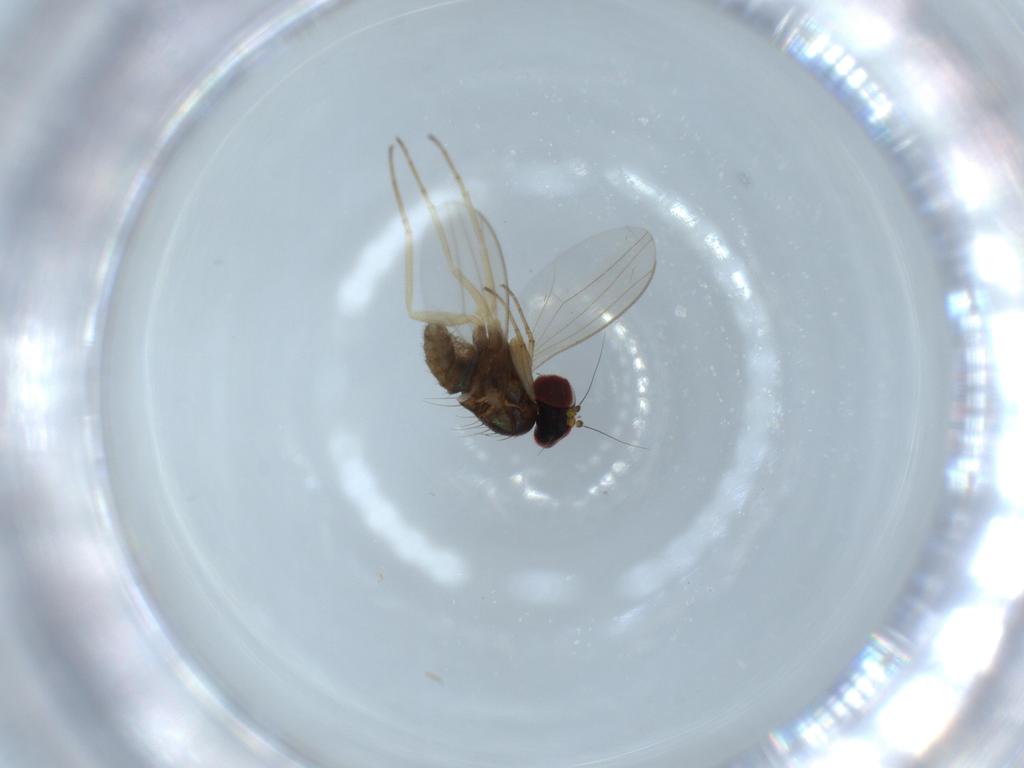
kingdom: Animalia
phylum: Arthropoda
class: Insecta
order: Diptera
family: Dolichopodidae
